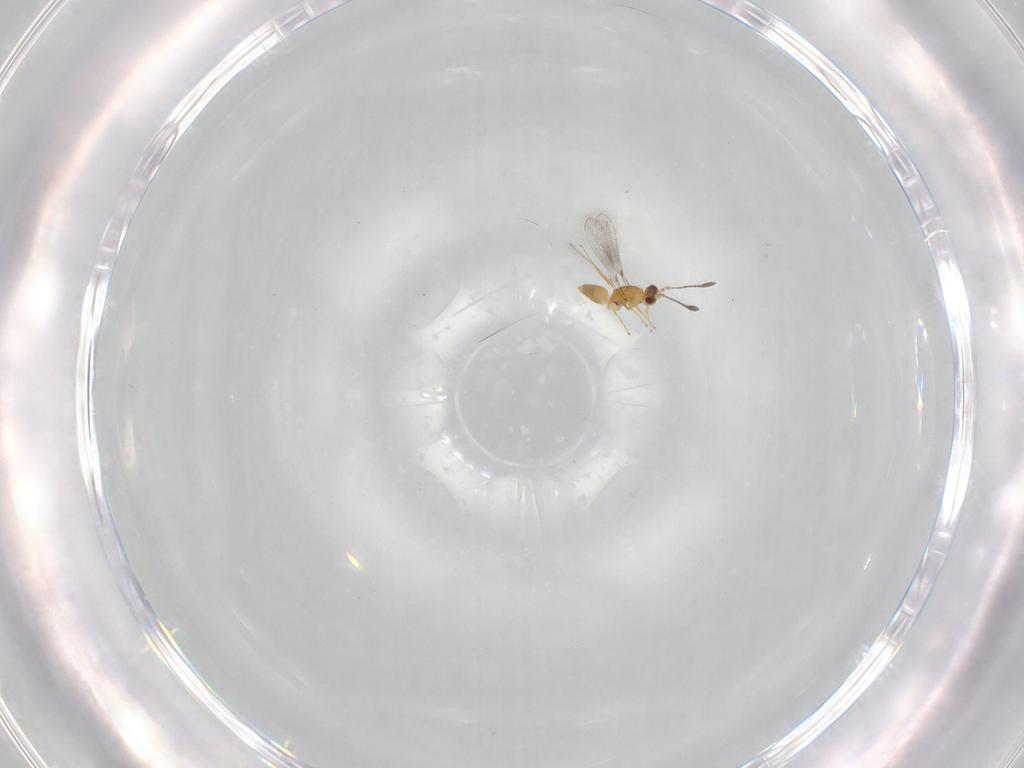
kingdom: Animalia
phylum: Arthropoda
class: Insecta
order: Hymenoptera
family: Mymaridae
